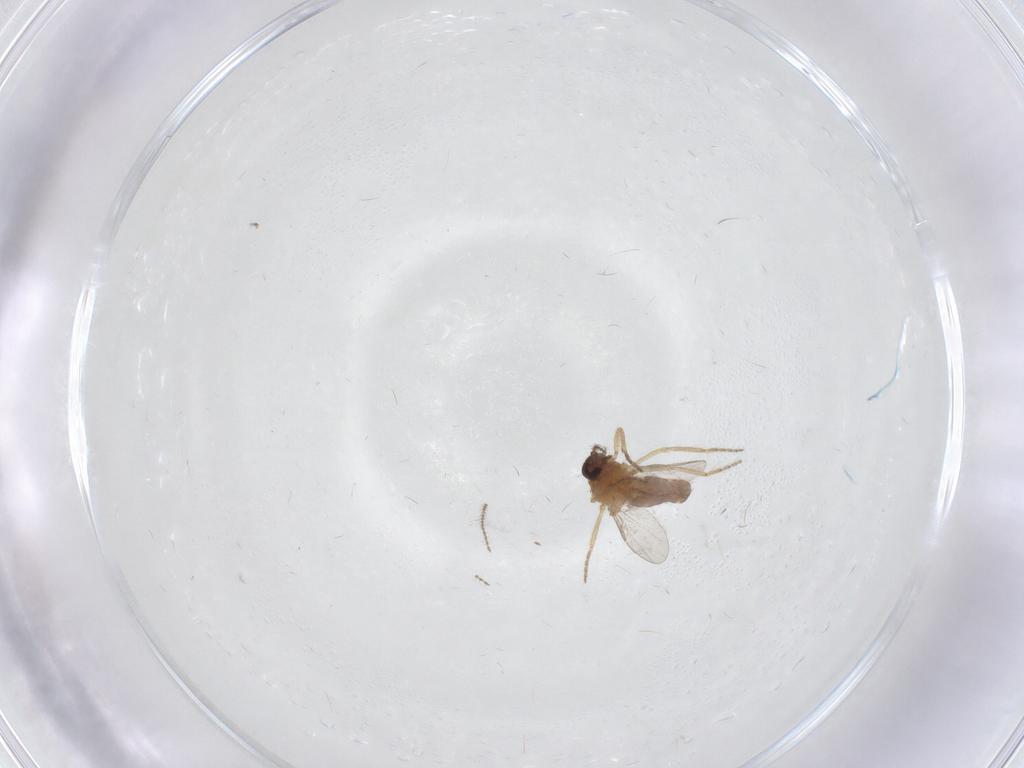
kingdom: Animalia
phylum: Arthropoda
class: Insecta
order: Diptera
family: Ceratopogonidae
